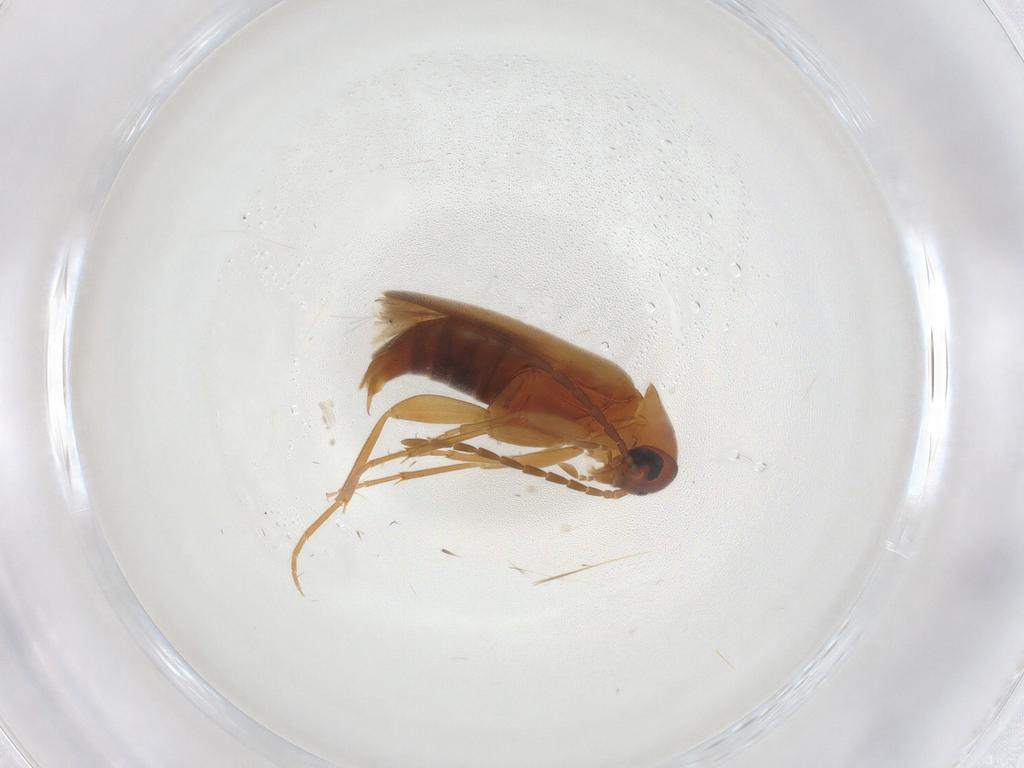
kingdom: Animalia
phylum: Arthropoda
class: Insecta
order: Coleoptera
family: Scraptiidae
